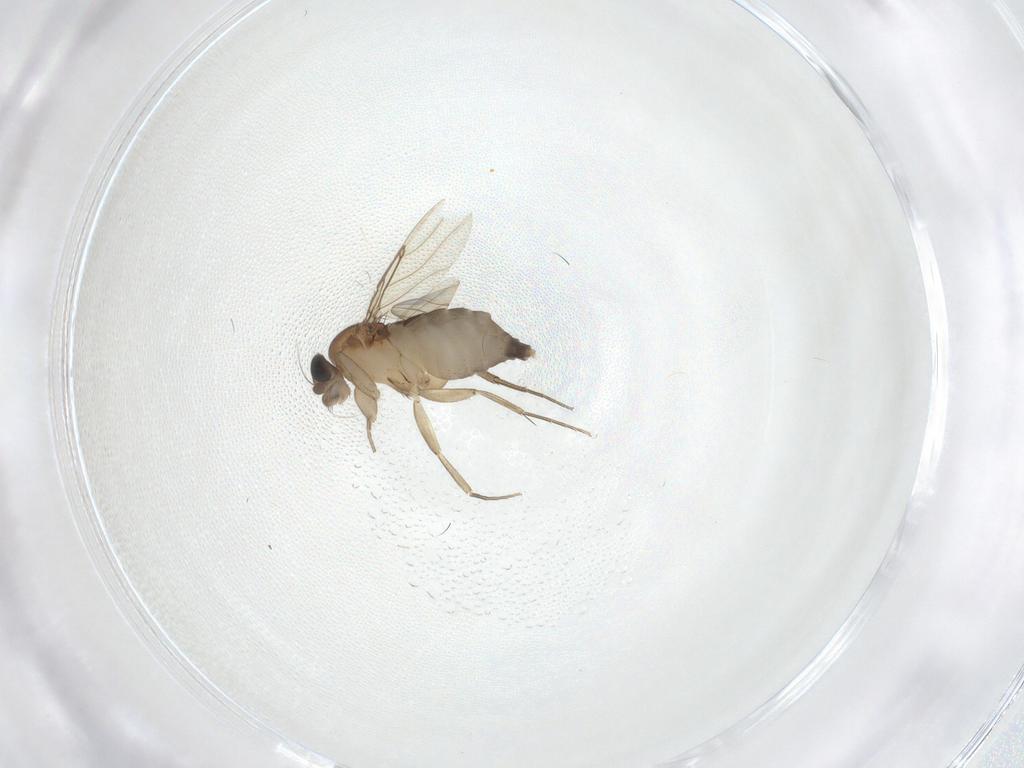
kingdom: Animalia
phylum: Arthropoda
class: Insecta
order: Diptera
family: Phoridae
